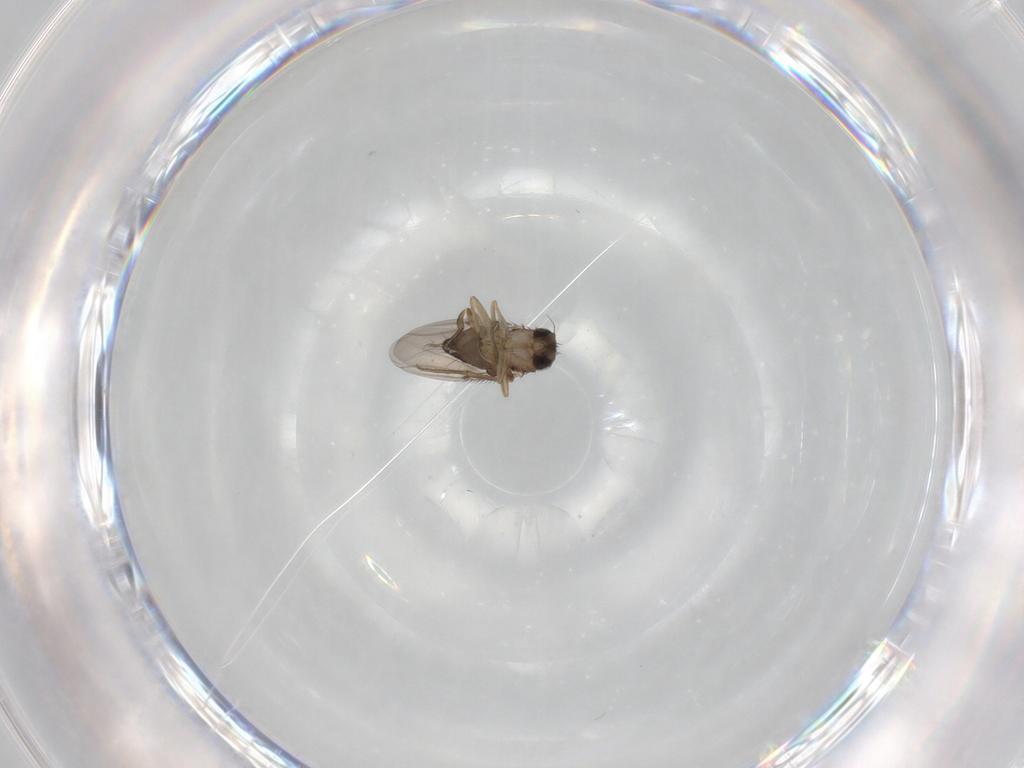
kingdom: Animalia
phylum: Arthropoda
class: Insecta
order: Diptera
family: Phoridae
